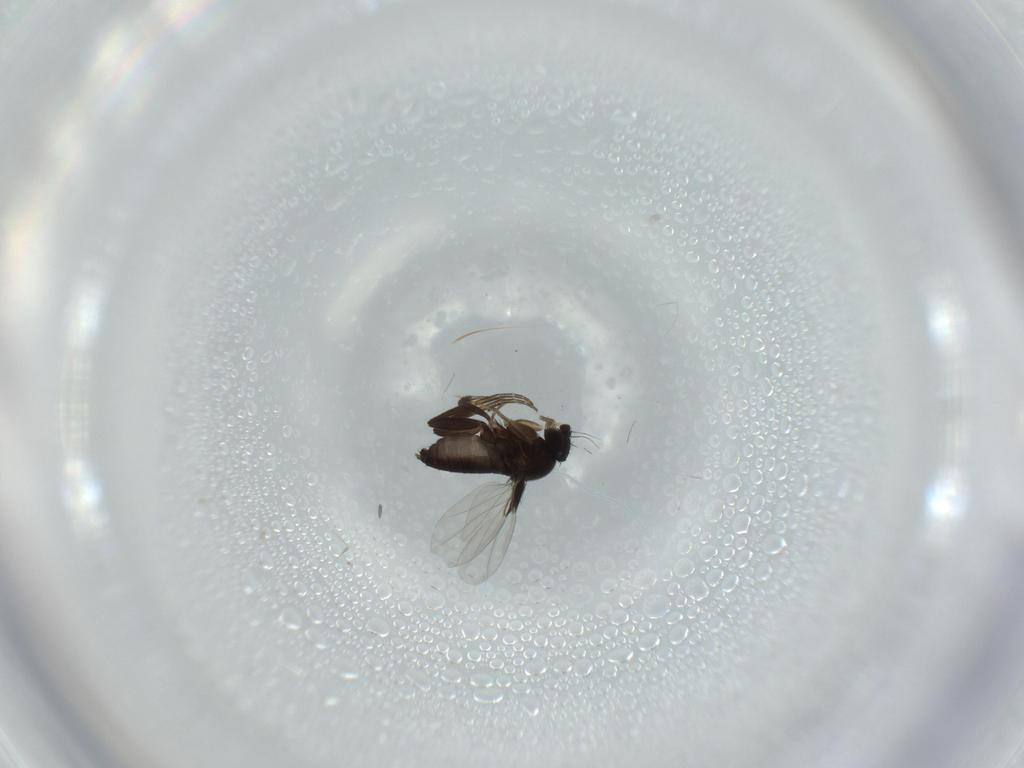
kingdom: Animalia
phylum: Arthropoda
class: Insecta
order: Diptera
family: Phoridae
